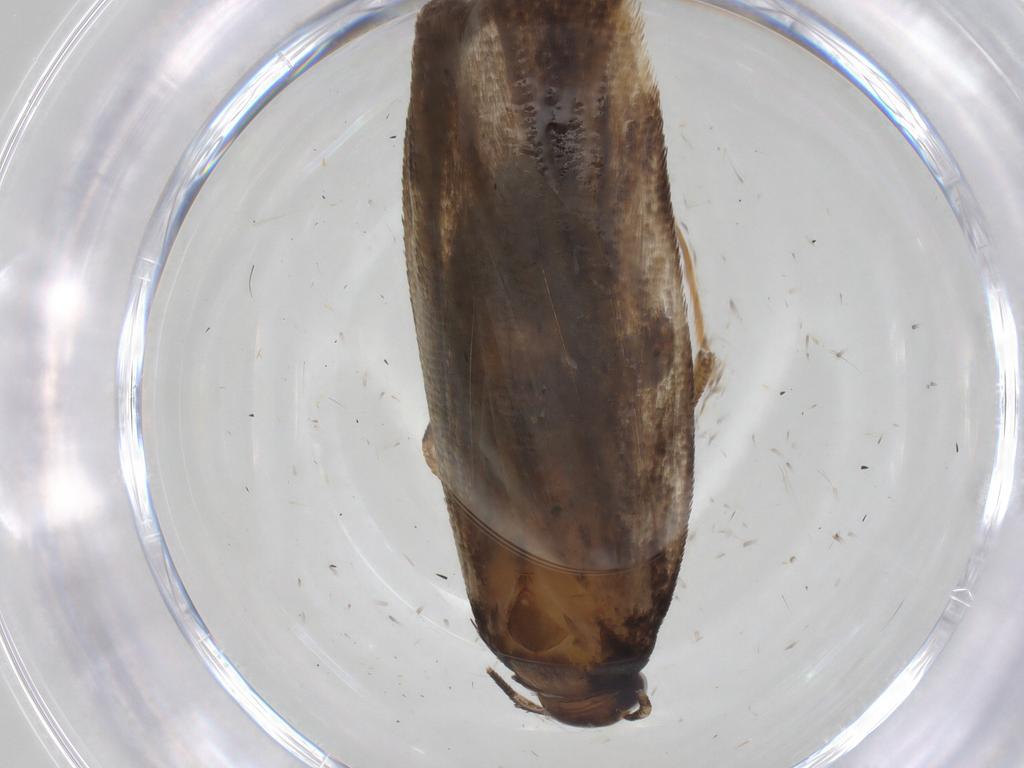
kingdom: Animalia
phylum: Arthropoda
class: Insecta
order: Lepidoptera
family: Gelechiidae
